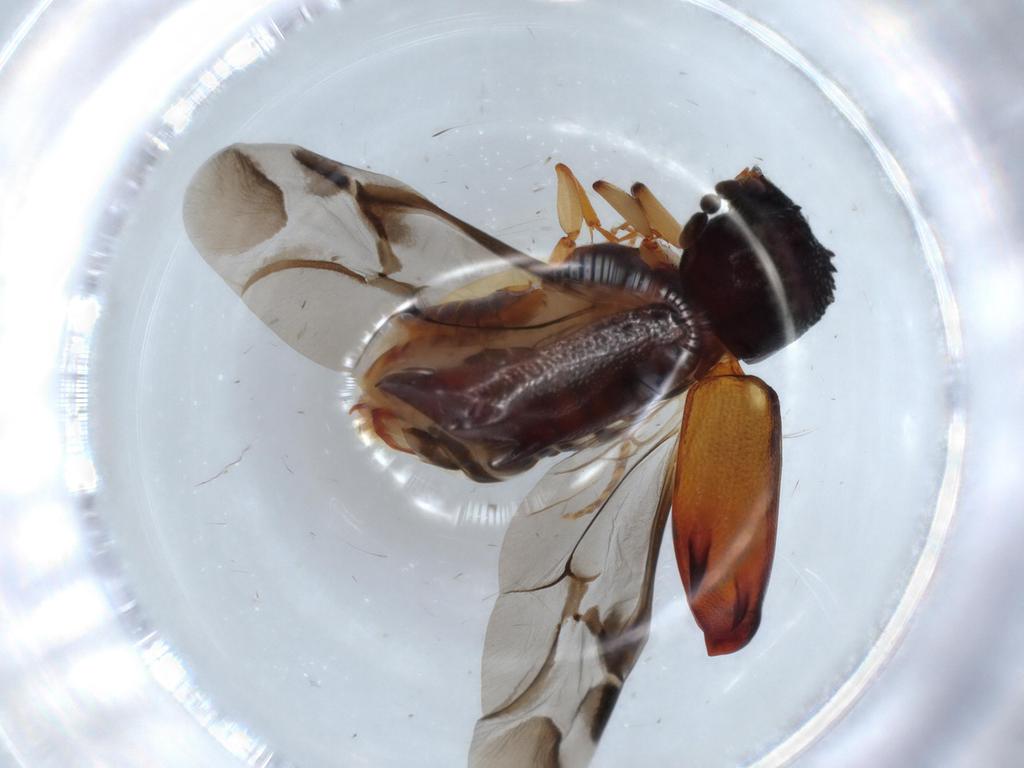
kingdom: Animalia
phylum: Arthropoda
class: Insecta
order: Coleoptera
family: Bostrichidae
